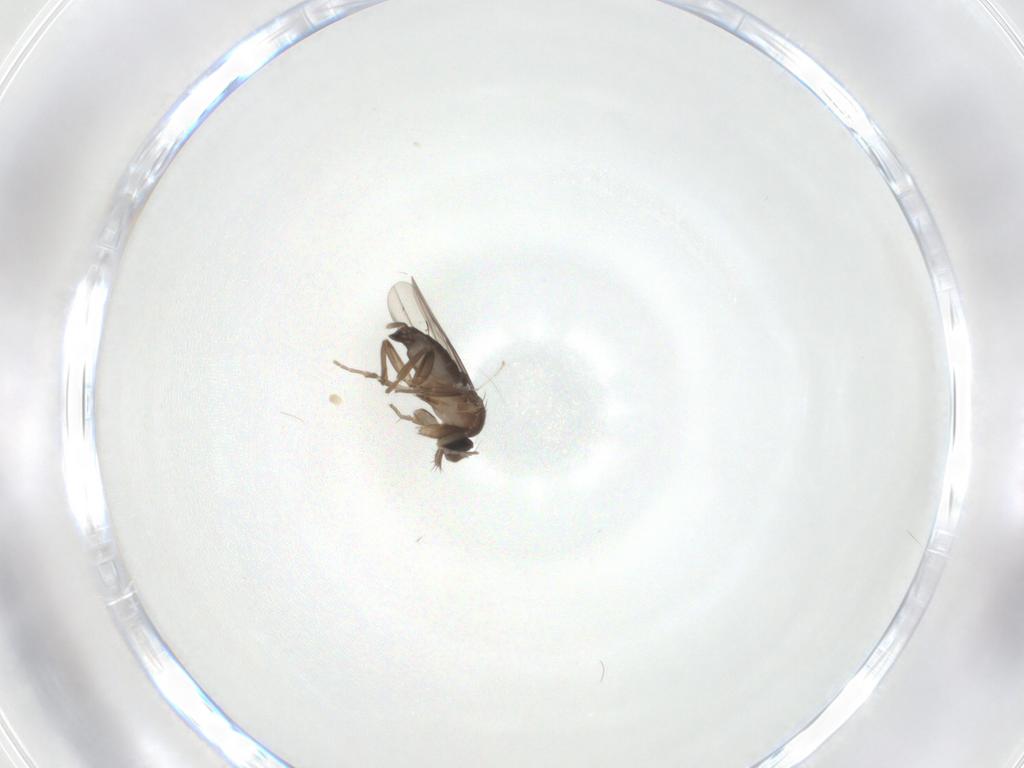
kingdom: Animalia
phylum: Arthropoda
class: Insecta
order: Diptera
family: Phoridae
